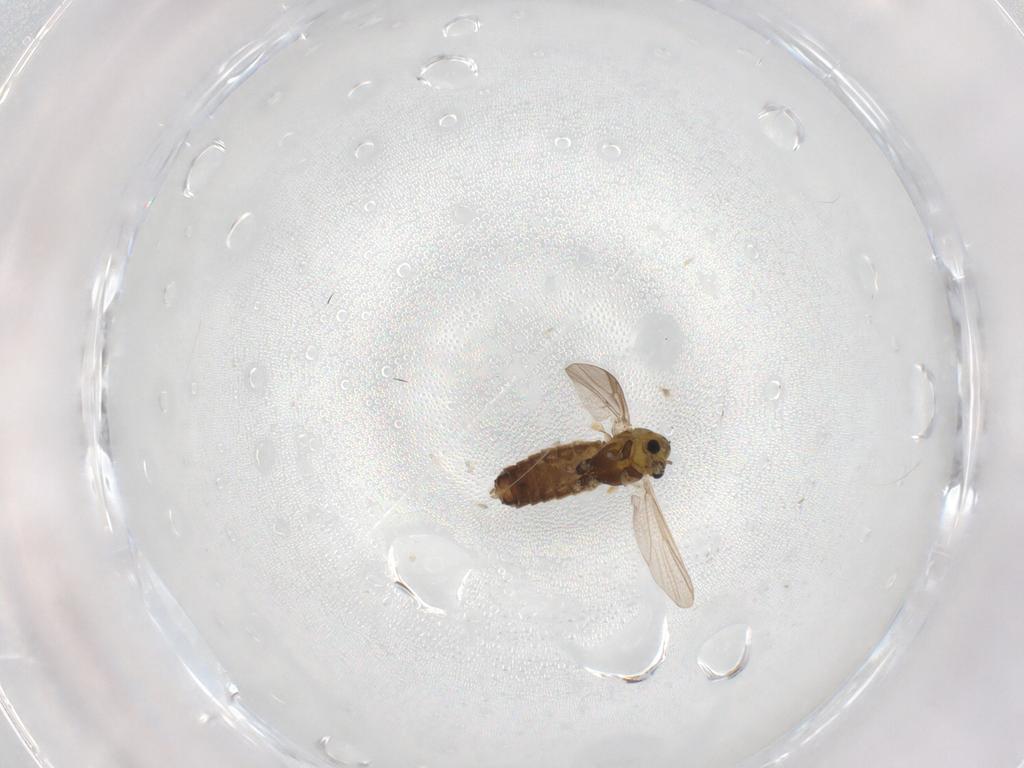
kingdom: Animalia
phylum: Arthropoda
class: Insecta
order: Diptera
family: Chironomidae
